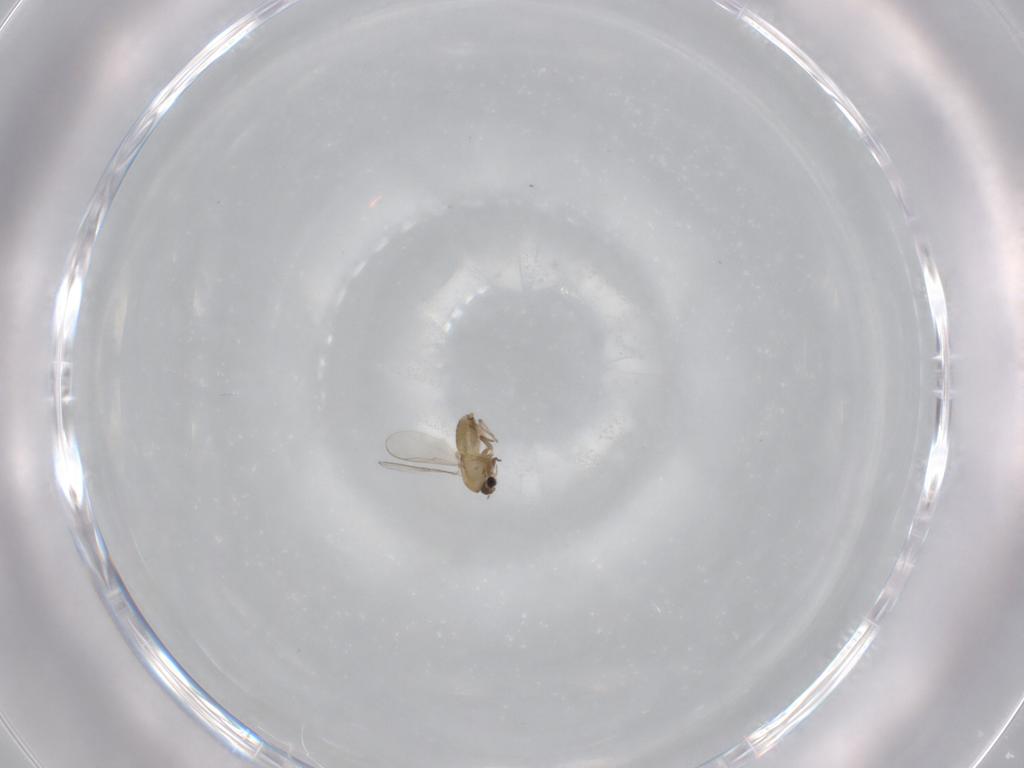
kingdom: Animalia
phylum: Arthropoda
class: Insecta
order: Diptera
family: Chironomidae
